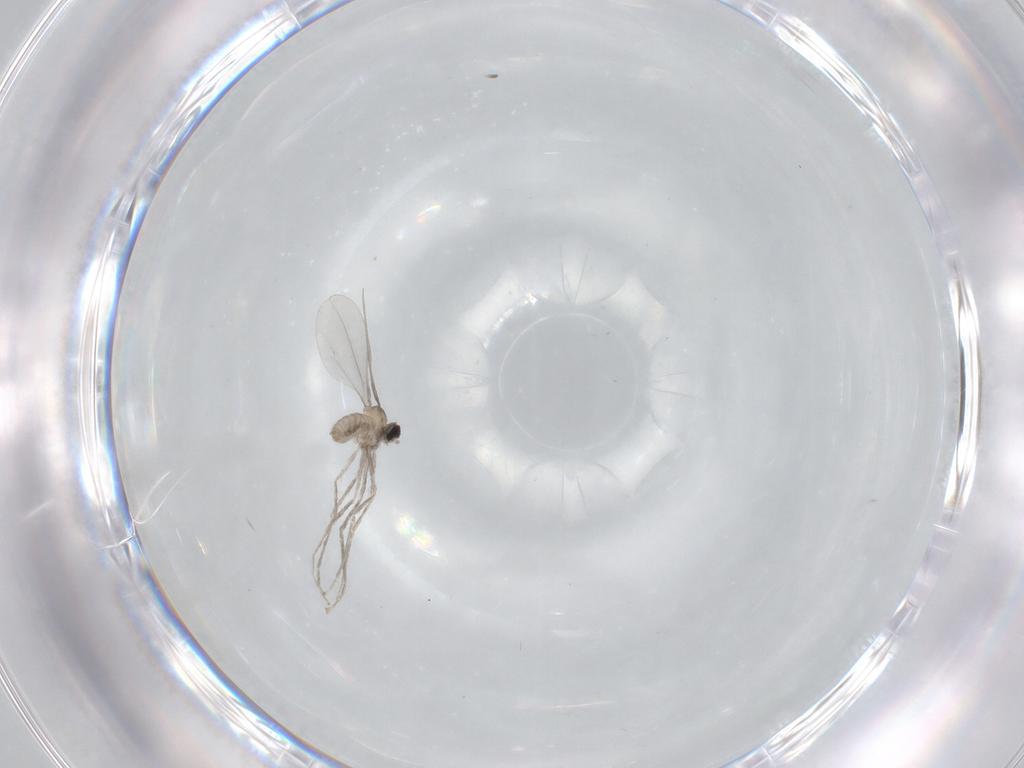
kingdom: Animalia
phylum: Arthropoda
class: Insecta
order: Diptera
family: Cecidomyiidae
